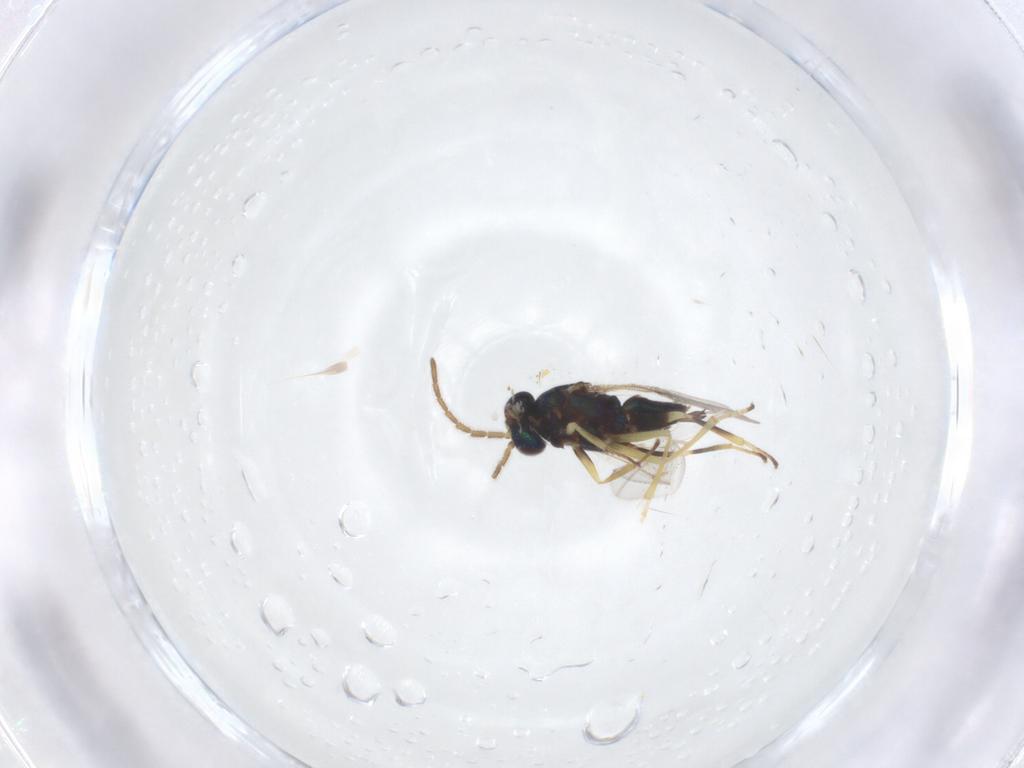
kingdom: Animalia
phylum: Arthropoda
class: Insecta
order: Hymenoptera
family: Encyrtidae
